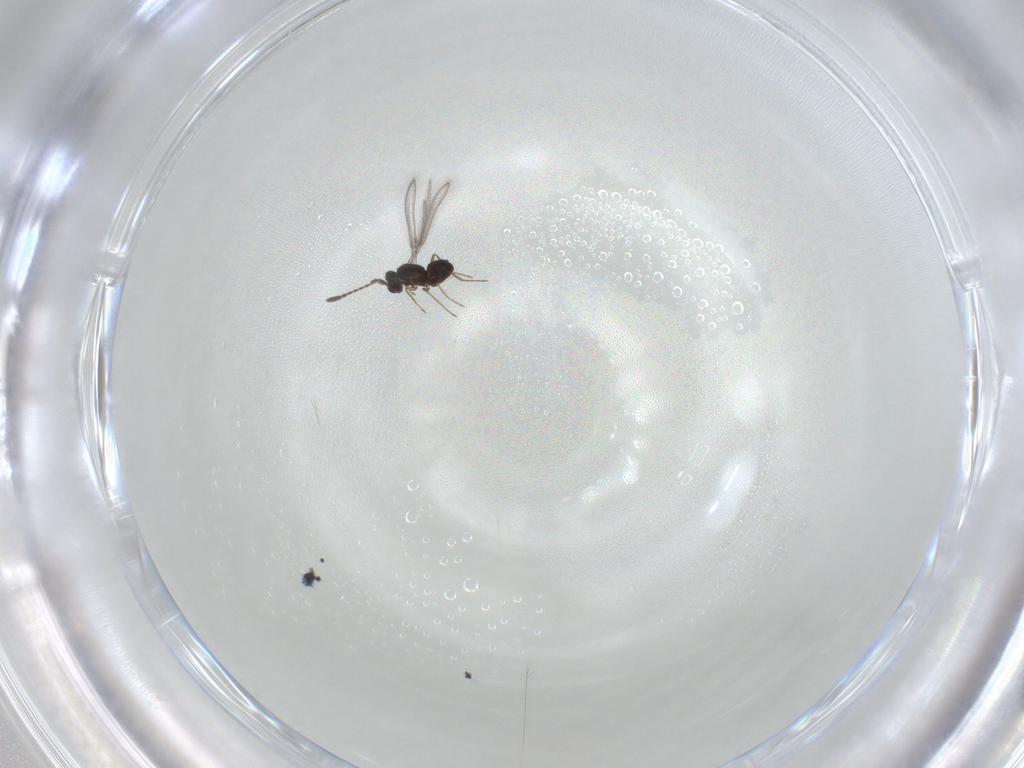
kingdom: Animalia
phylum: Arthropoda
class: Insecta
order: Hymenoptera
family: Mymaridae
